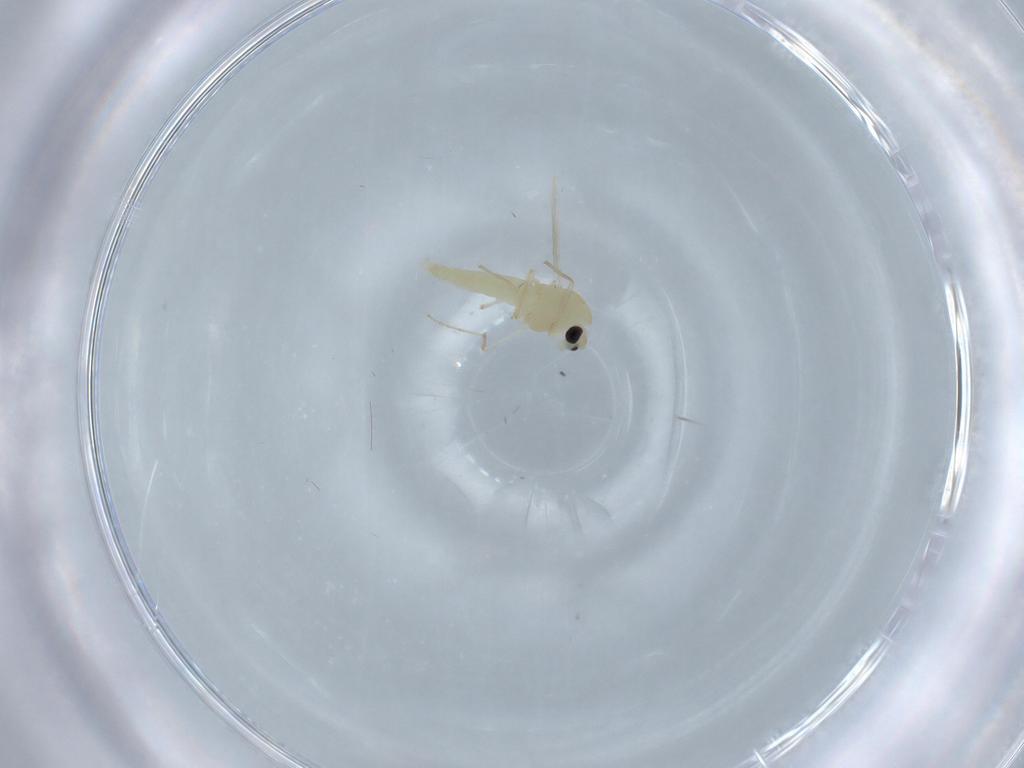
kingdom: Animalia
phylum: Arthropoda
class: Insecta
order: Diptera
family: Chironomidae
